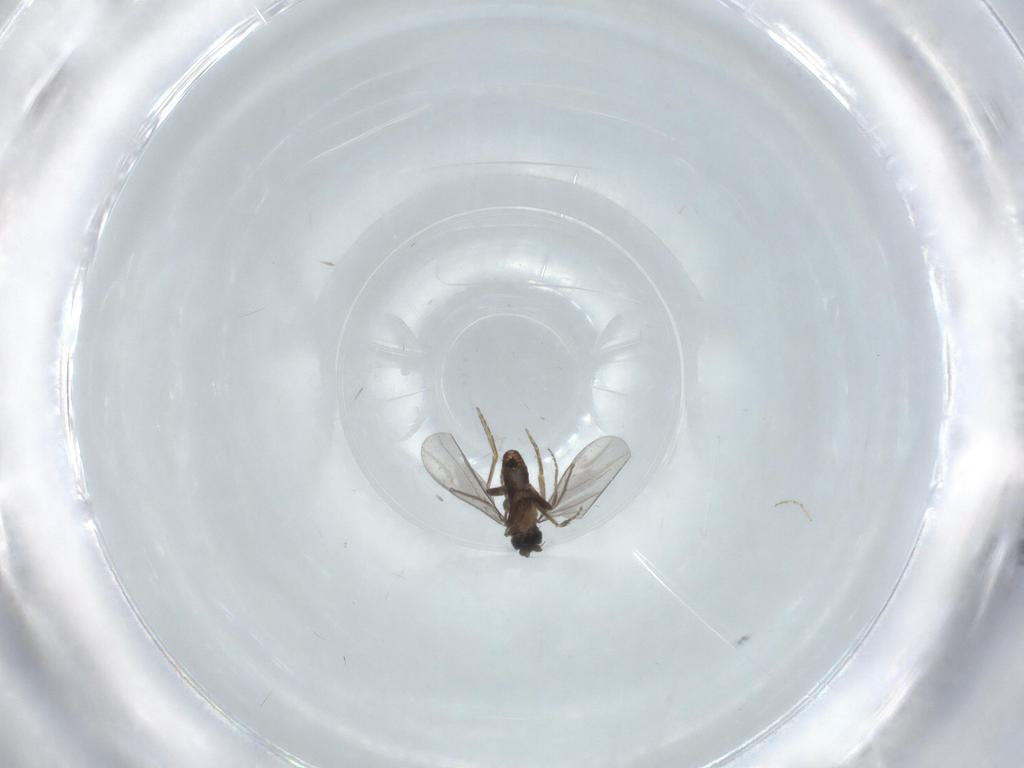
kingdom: Animalia
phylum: Arthropoda
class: Insecta
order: Diptera
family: Chironomidae
